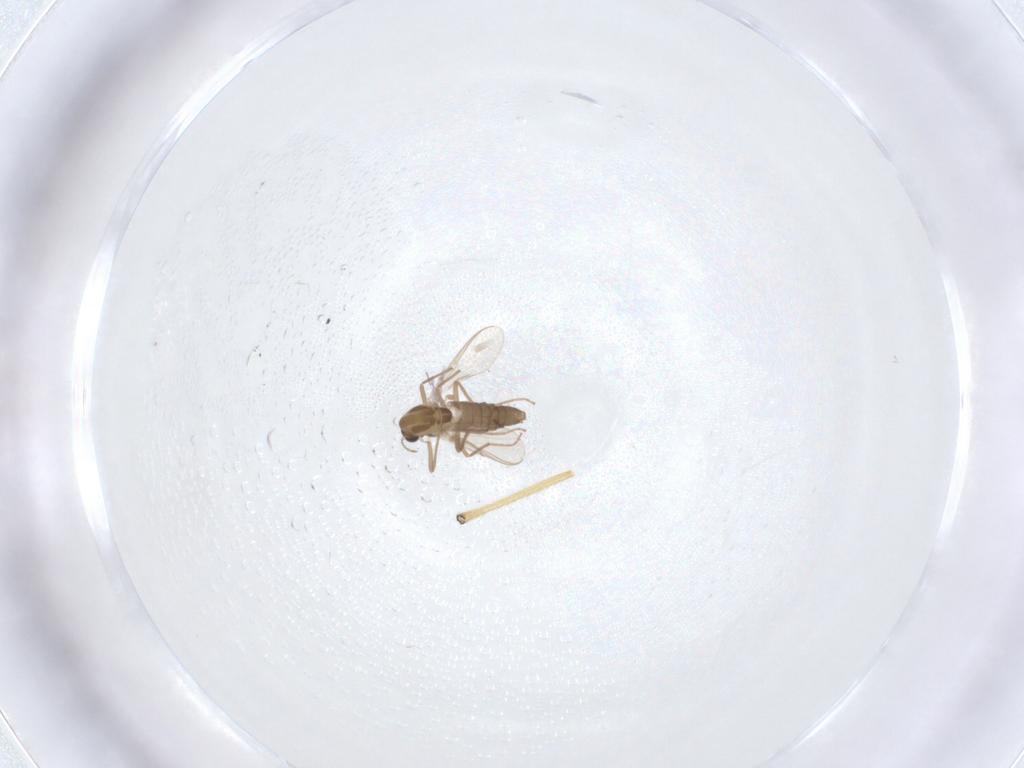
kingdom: Animalia
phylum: Arthropoda
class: Insecta
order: Diptera
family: Chironomidae
